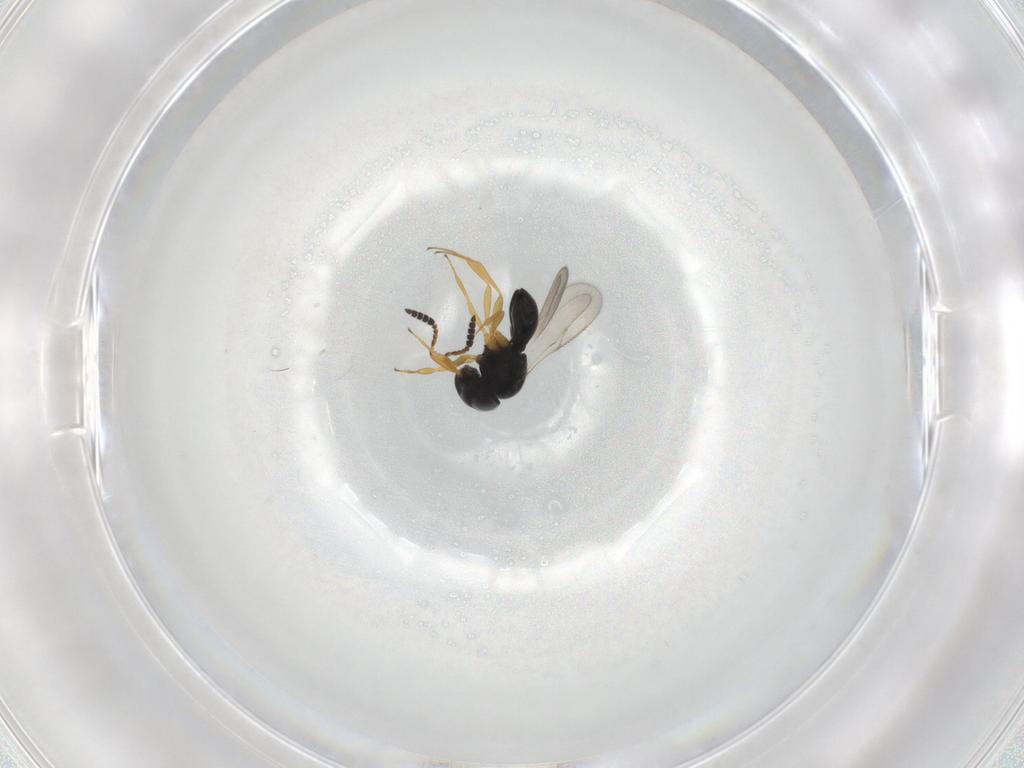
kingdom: Animalia
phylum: Arthropoda
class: Insecta
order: Hymenoptera
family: Scelionidae
